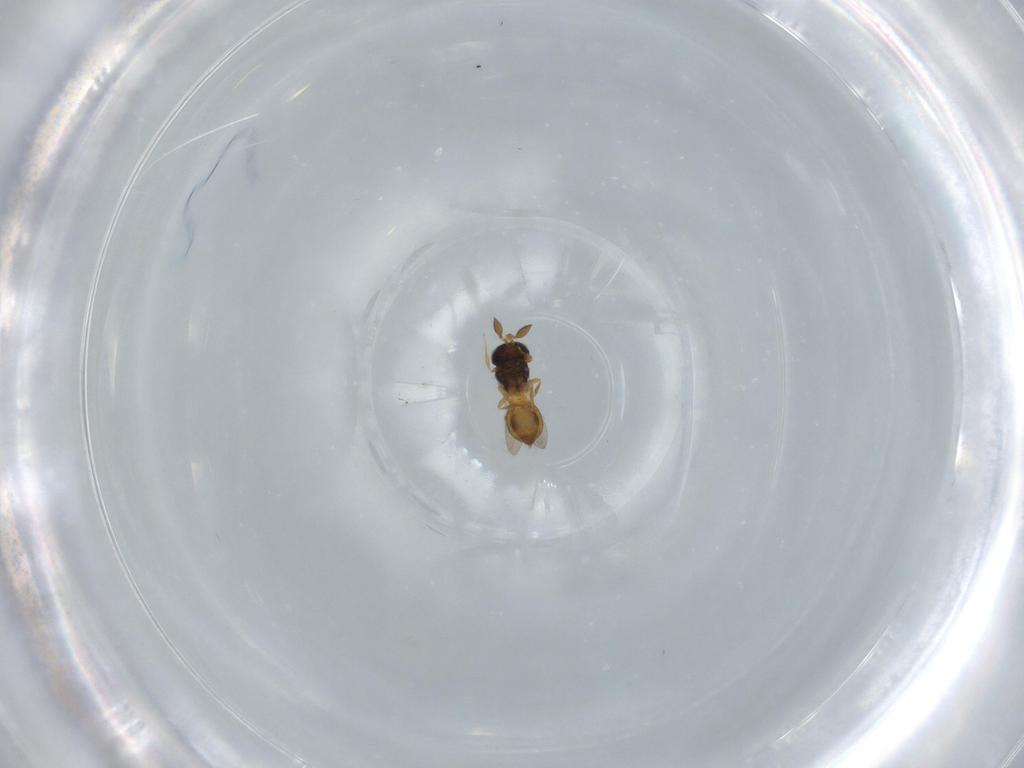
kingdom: Animalia
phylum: Arthropoda
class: Insecta
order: Hymenoptera
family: Scelionidae
